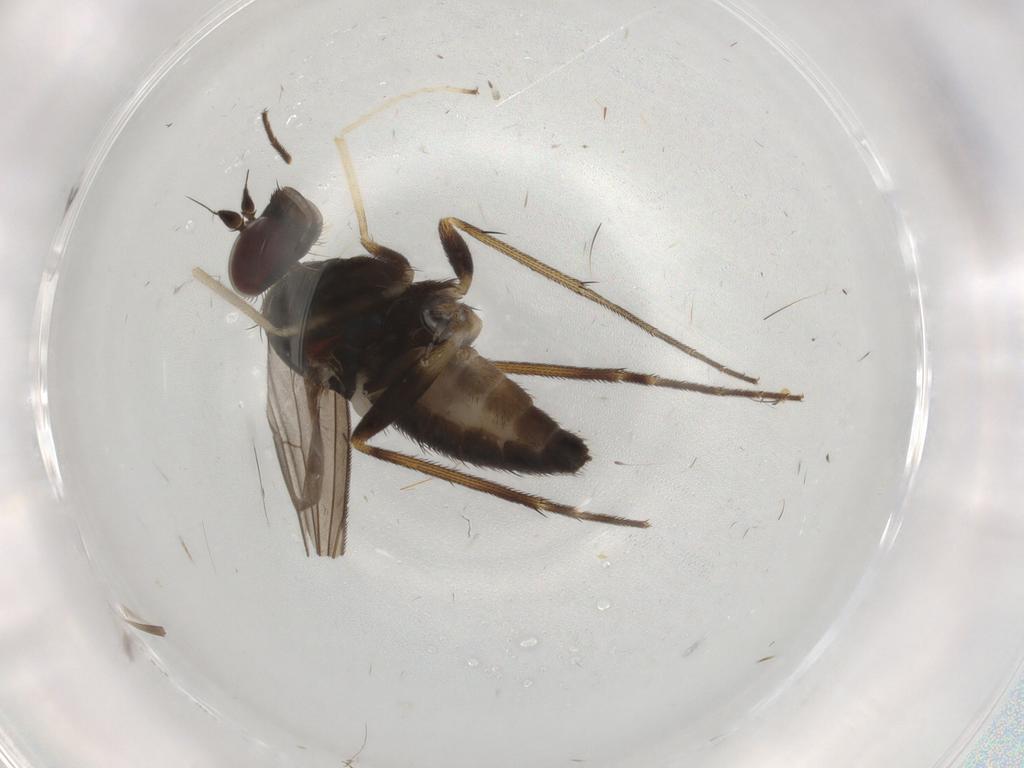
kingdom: Animalia
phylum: Arthropoda
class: Insecta
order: Diptera
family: Dolichopodidae
